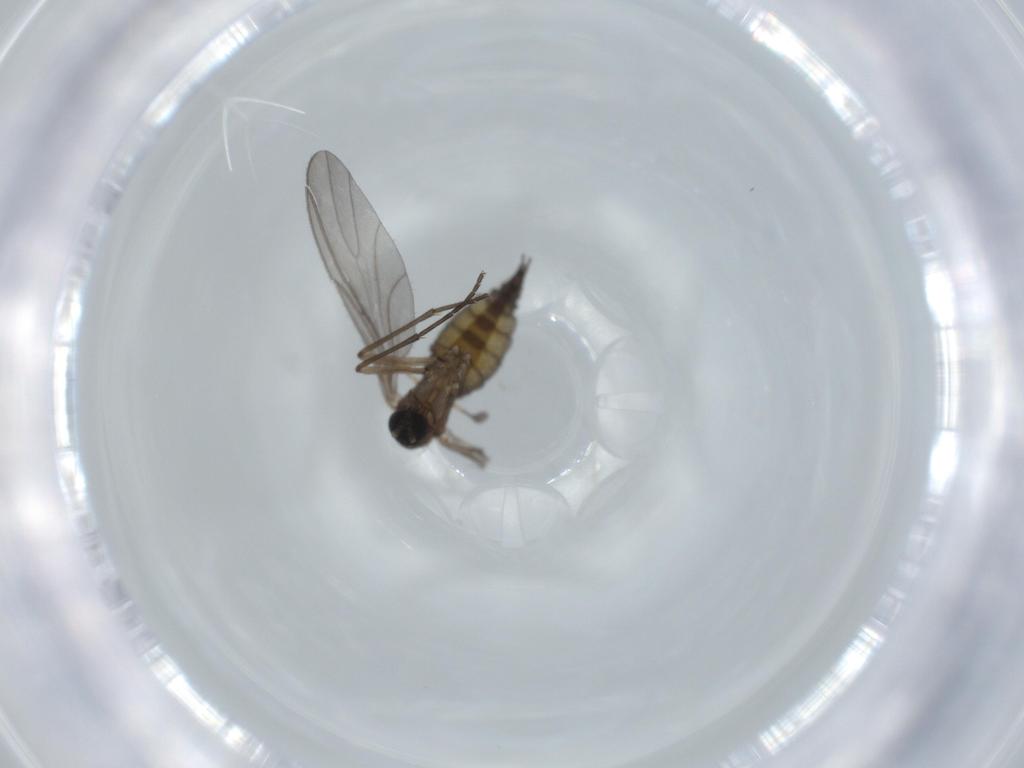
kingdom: Animalia
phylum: Arthropoda
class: Insecta
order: Diptera
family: Sciaridae
